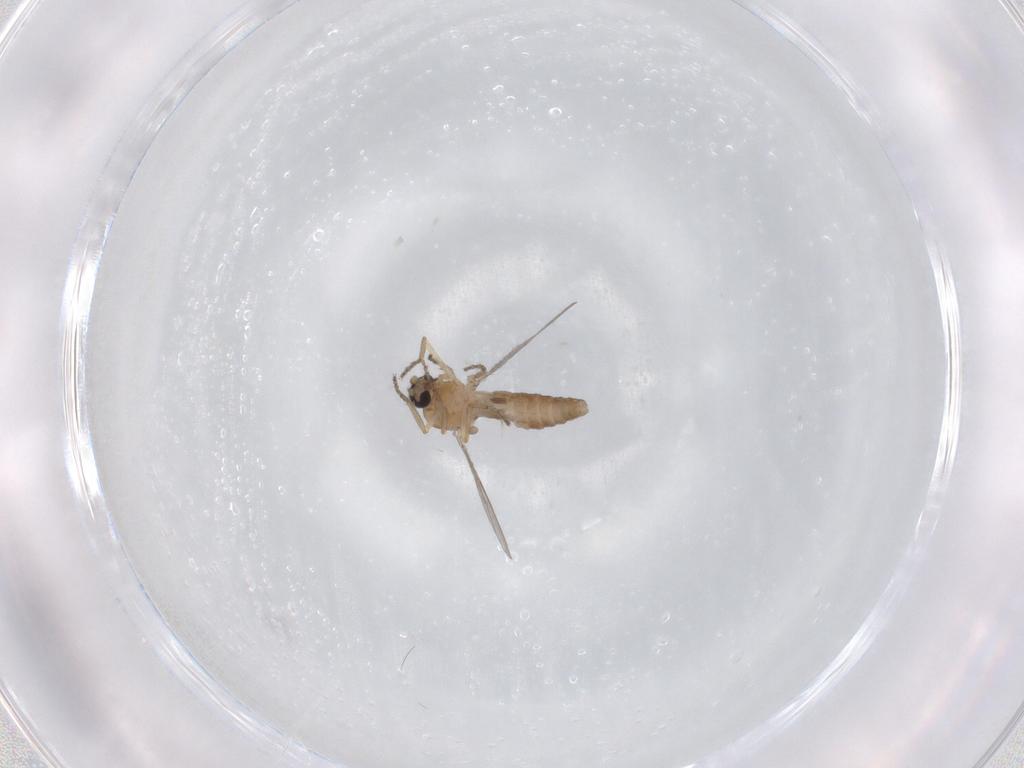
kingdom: Animalia
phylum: Arthropoda
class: Insecta
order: Diptera
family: Ceratopogonidae
